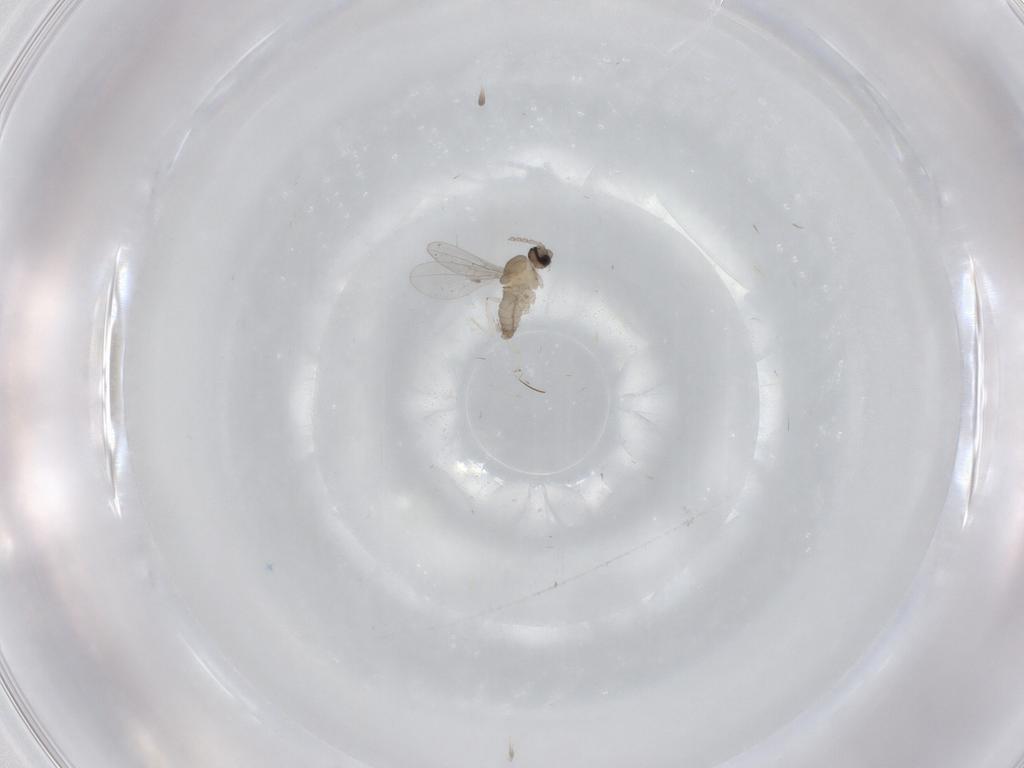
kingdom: Animalia
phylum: Arthropoda
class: Insecta
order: Diptera
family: Cecidomyiidae
